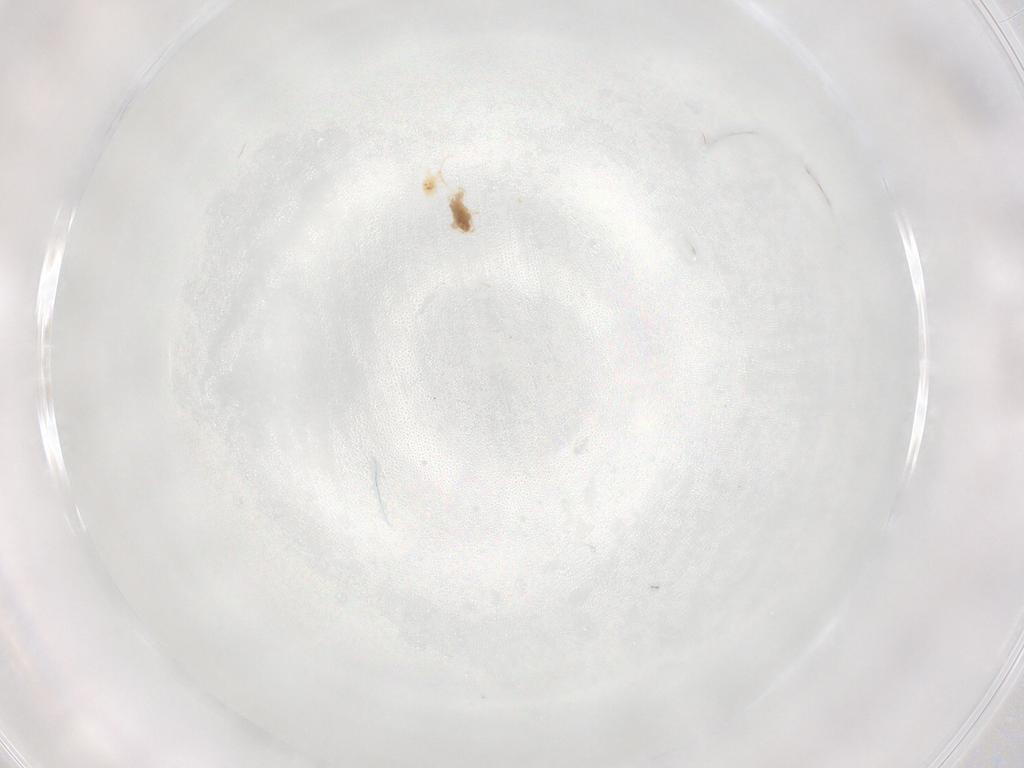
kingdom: Animalia
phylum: Arthropoda
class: Arachnida
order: Trombidiformes
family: Cunaxidae
